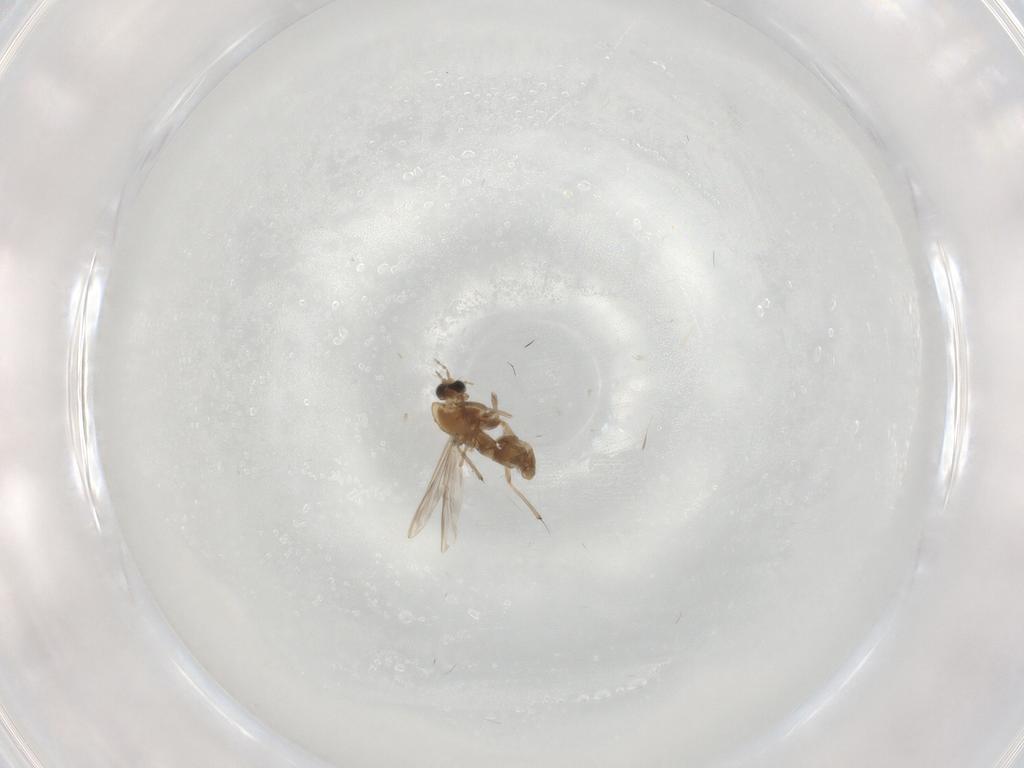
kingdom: Animalia
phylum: Arthropoda
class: Insecta
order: Diptera
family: Chironomidae
